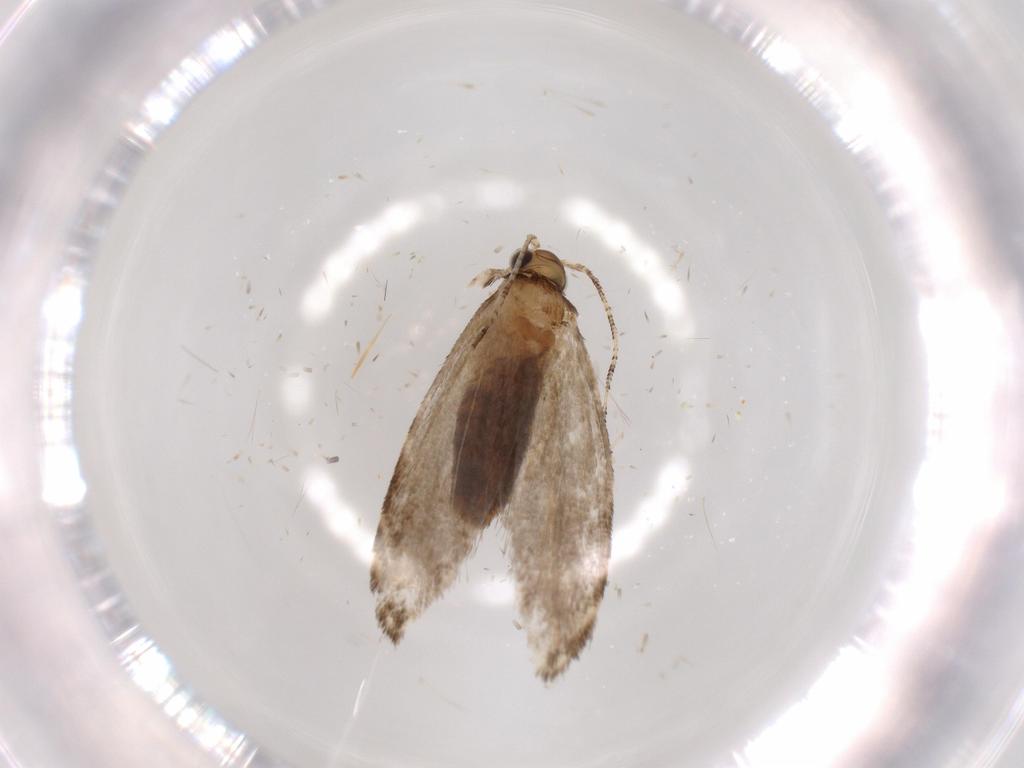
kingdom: Animalia
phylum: Arthropoda
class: Insecta
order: Lepidoptera
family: Tineidae
